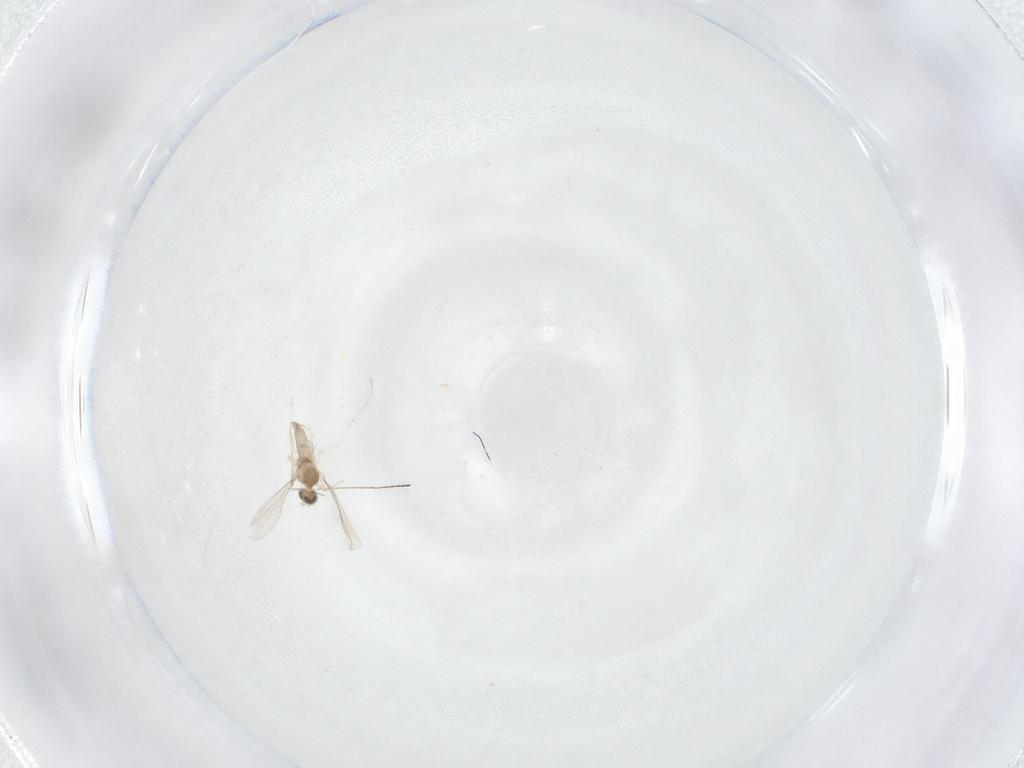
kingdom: Animalia
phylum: Arthropoda
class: Insecta
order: Diptera
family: Cecidomyiidae
